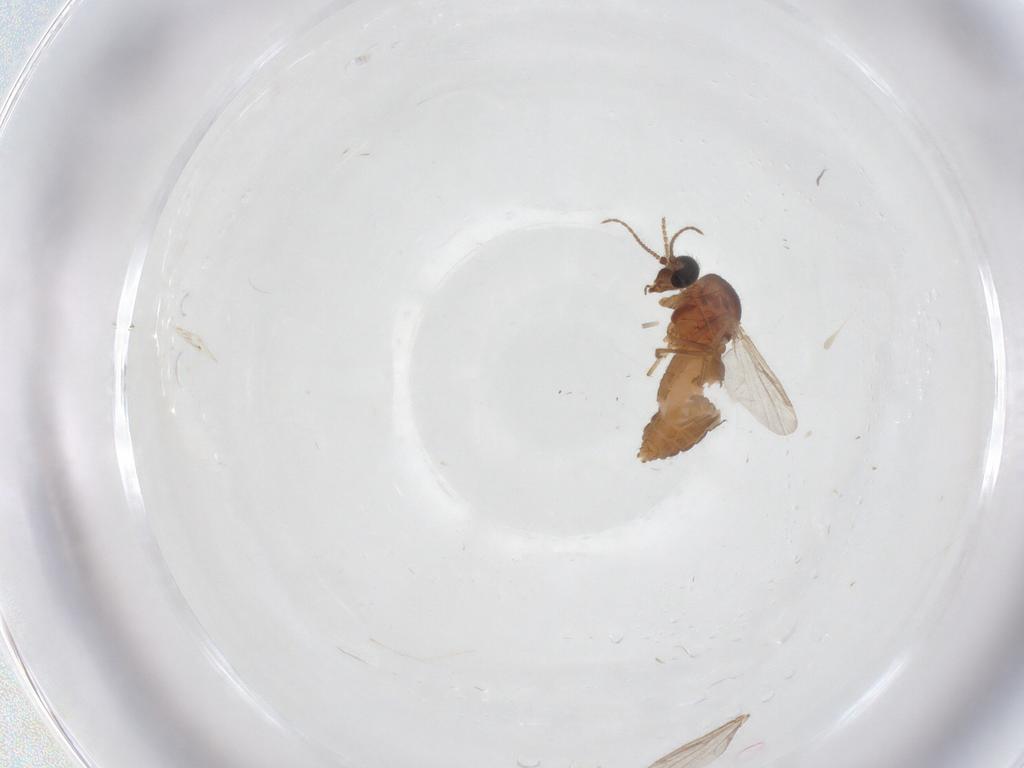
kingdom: Animalia
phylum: Arthropoda
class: Insecta
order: Diptera
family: Ceratopogonidae
